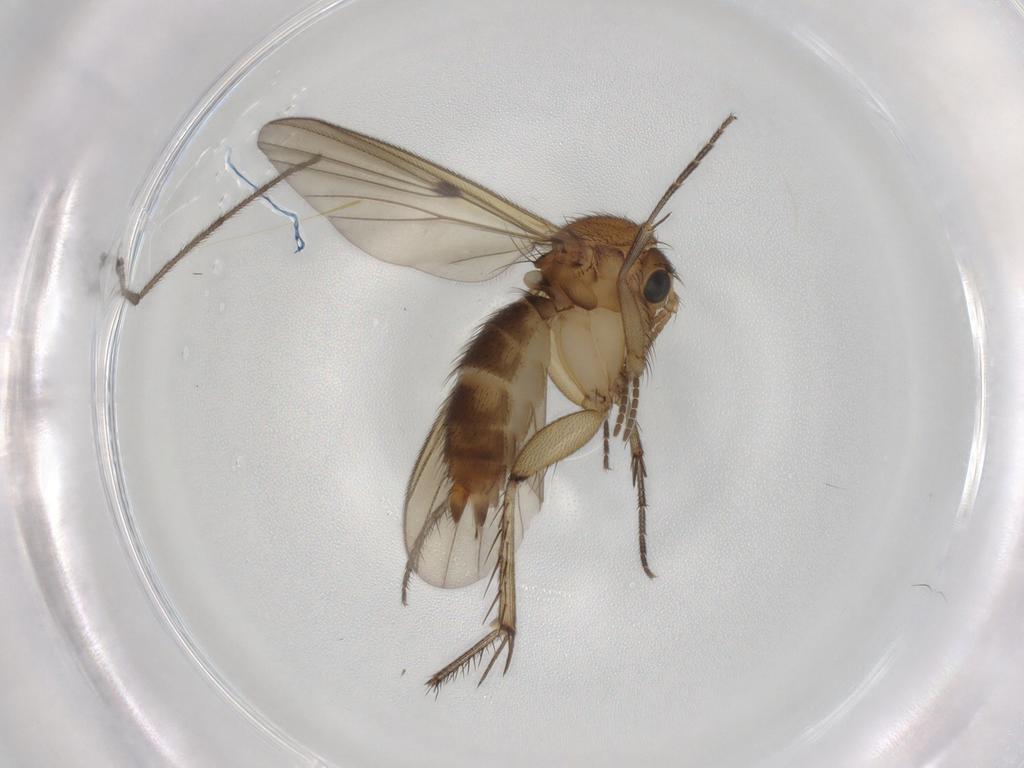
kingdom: Animalia
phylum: Arthropoda
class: Insecta
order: Diptera
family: Mycetophilidae
